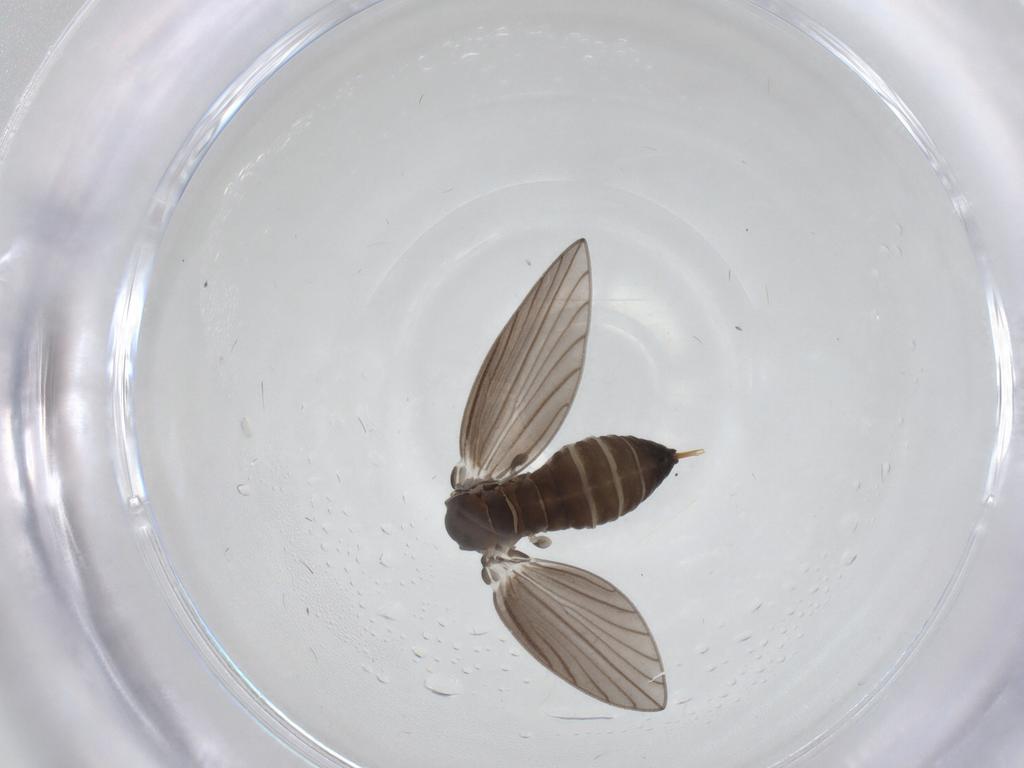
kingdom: Animalia
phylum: Arthropoda
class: Insecta
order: Diptera
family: Psychodidae
